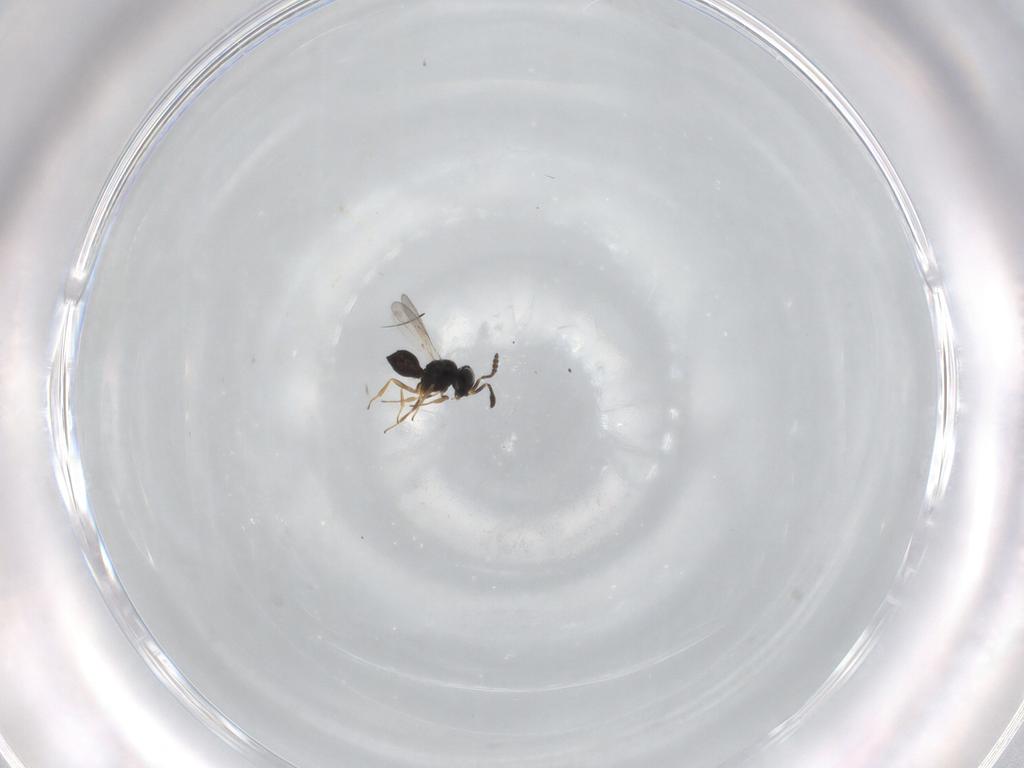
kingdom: Animalia
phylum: Arthropoda
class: Insecta
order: Hymenoptera
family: Scelionidae
